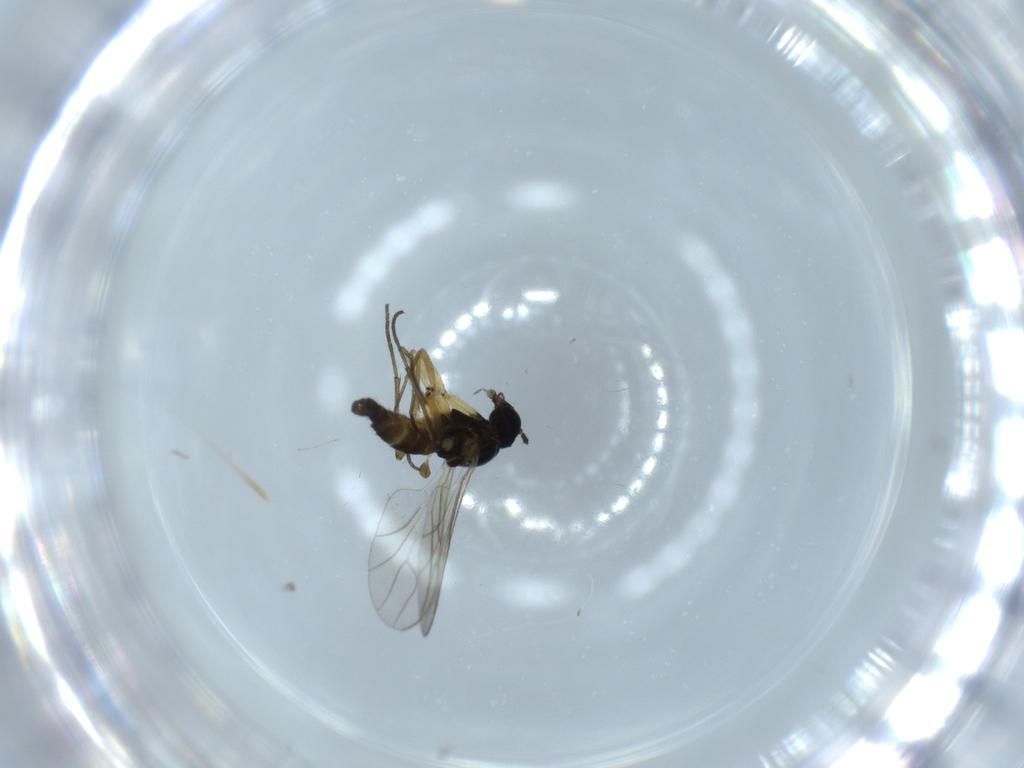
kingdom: Animalia
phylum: Arthropoda
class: Insecta
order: Diptera
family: Sciaridae
